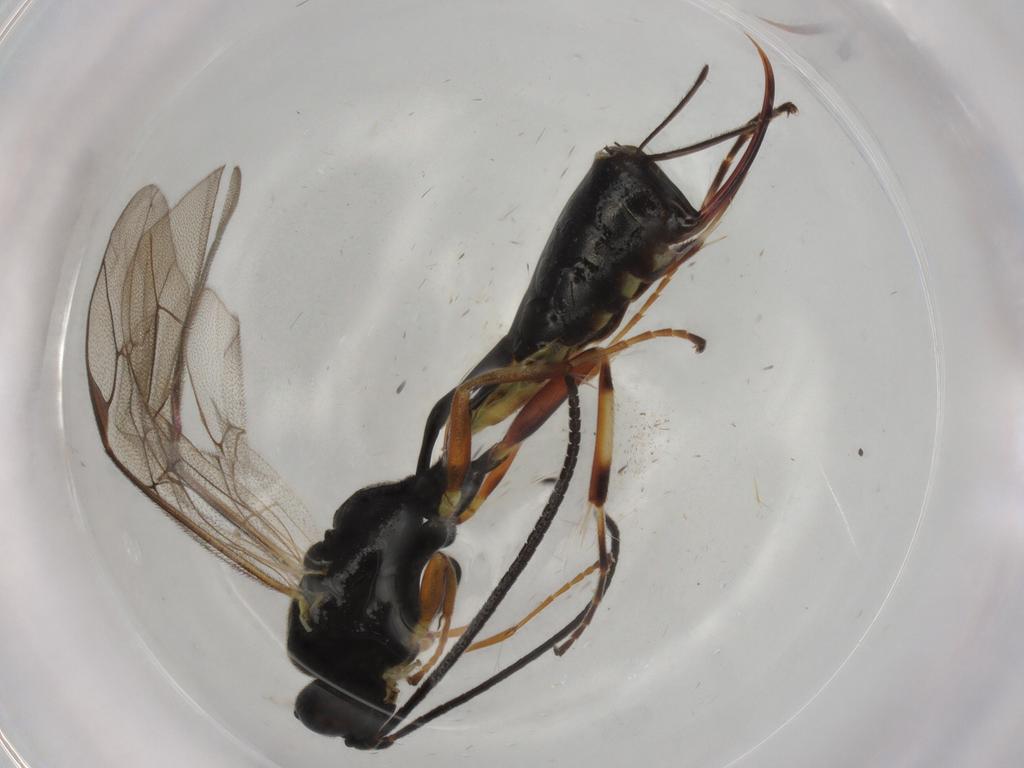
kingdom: Animalia
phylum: Arthropoda
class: Insecta
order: Hymenoptera
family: Ichneumonidae
